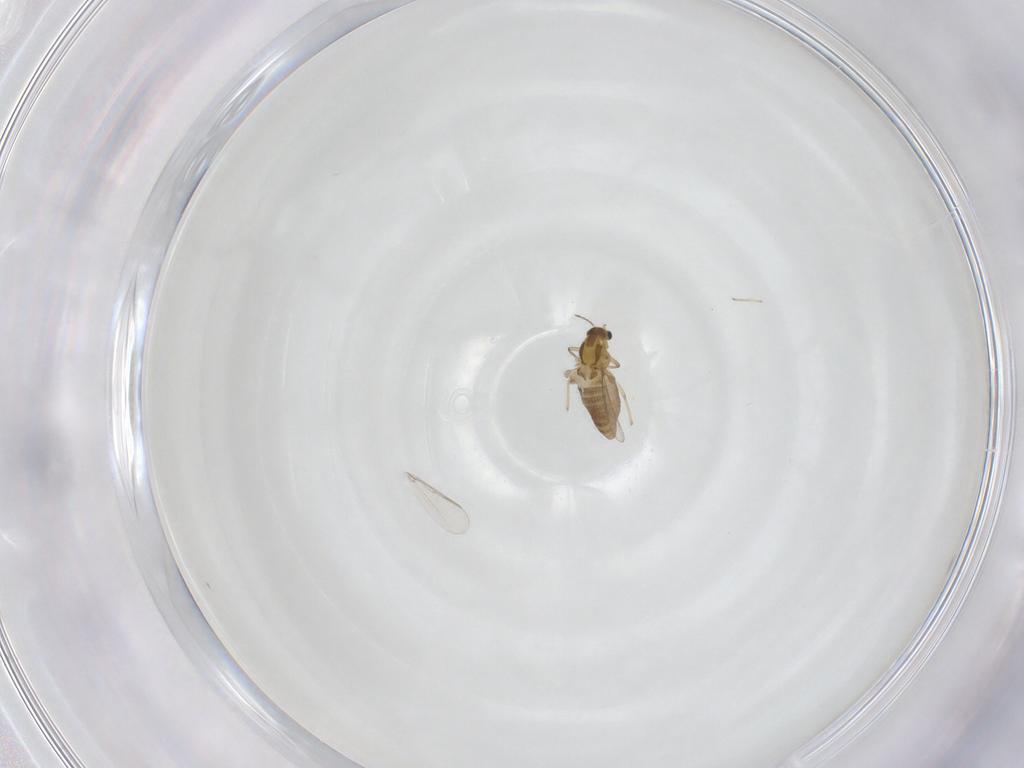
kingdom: Animalia
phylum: Arthropoda
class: Insecta
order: Diptera
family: Chironomidae
